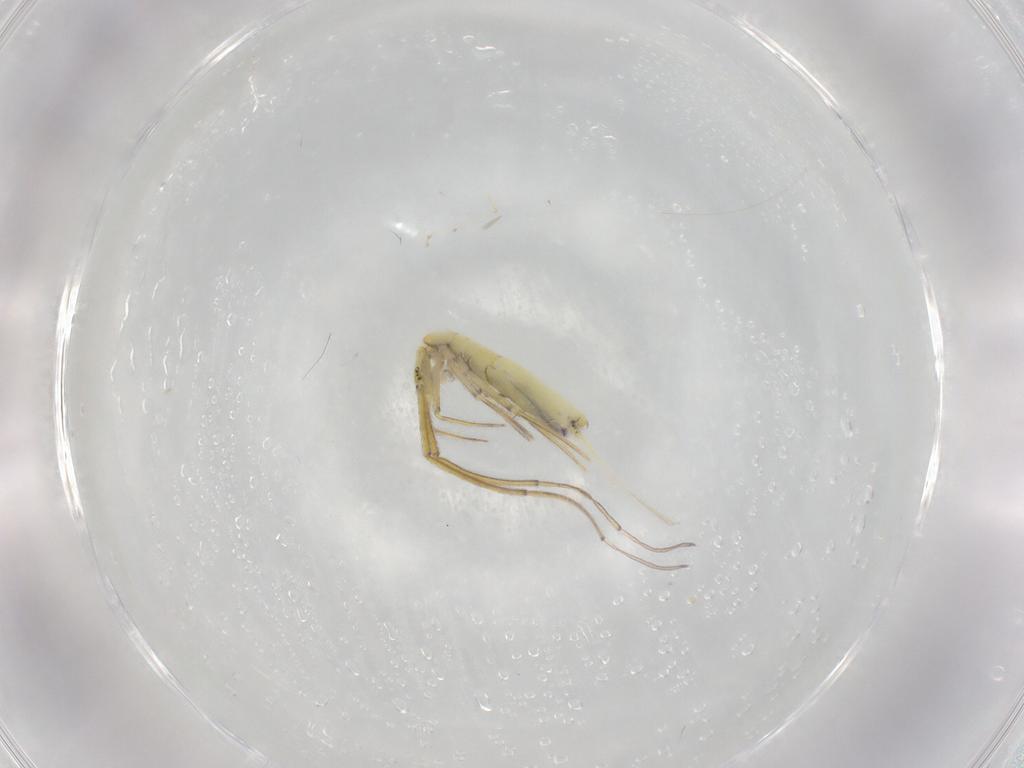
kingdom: Animalia
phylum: Arthropoda
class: Collembola
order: Entomobryomorpha
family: Entomobryidae
